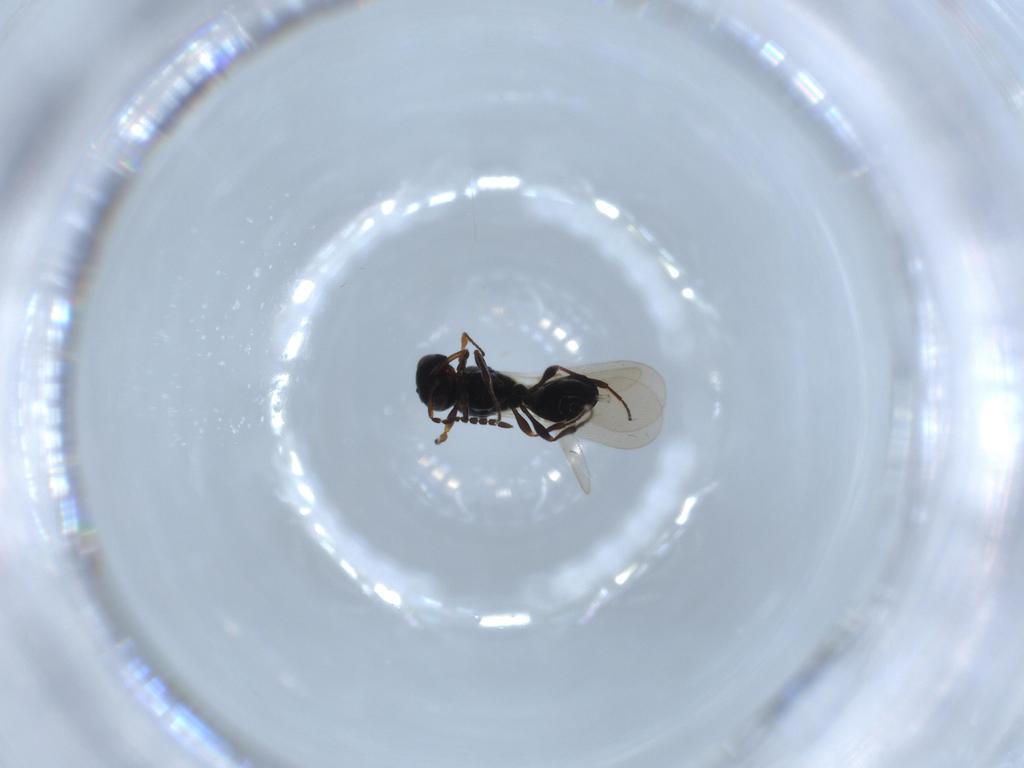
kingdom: Animalia
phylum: Arthropoda
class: Insecta
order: Hymenoptera
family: Platygastridae
